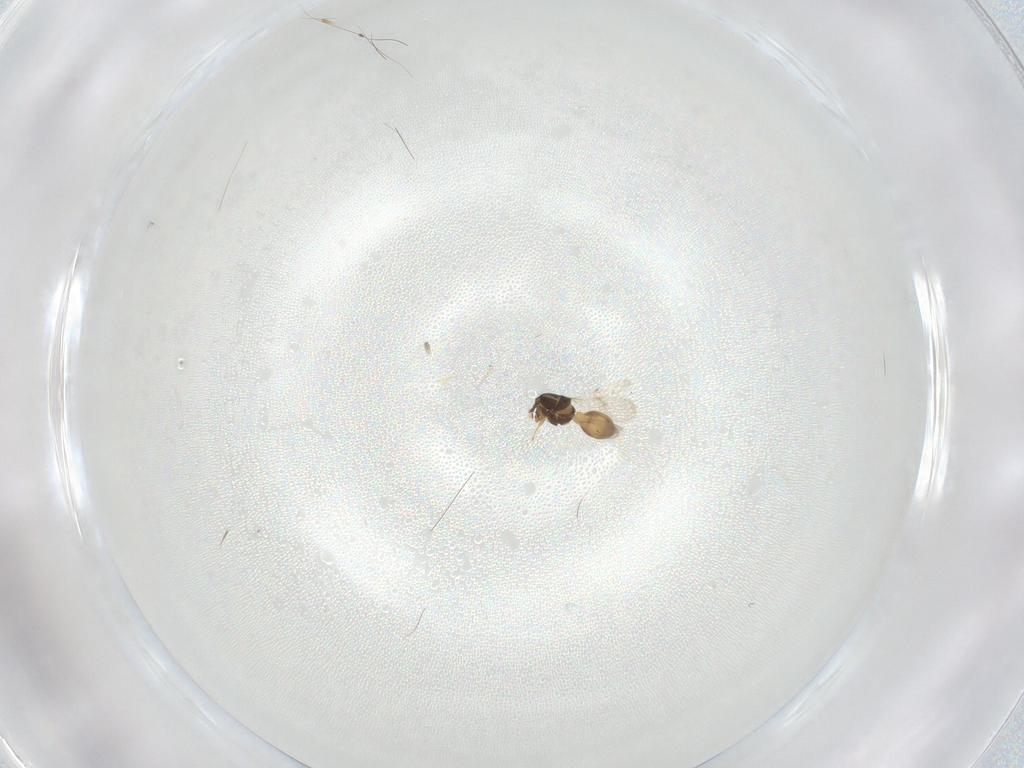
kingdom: Animalia
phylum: Arthropoda
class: Insecta
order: Hymenoptera
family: Scelionidae
